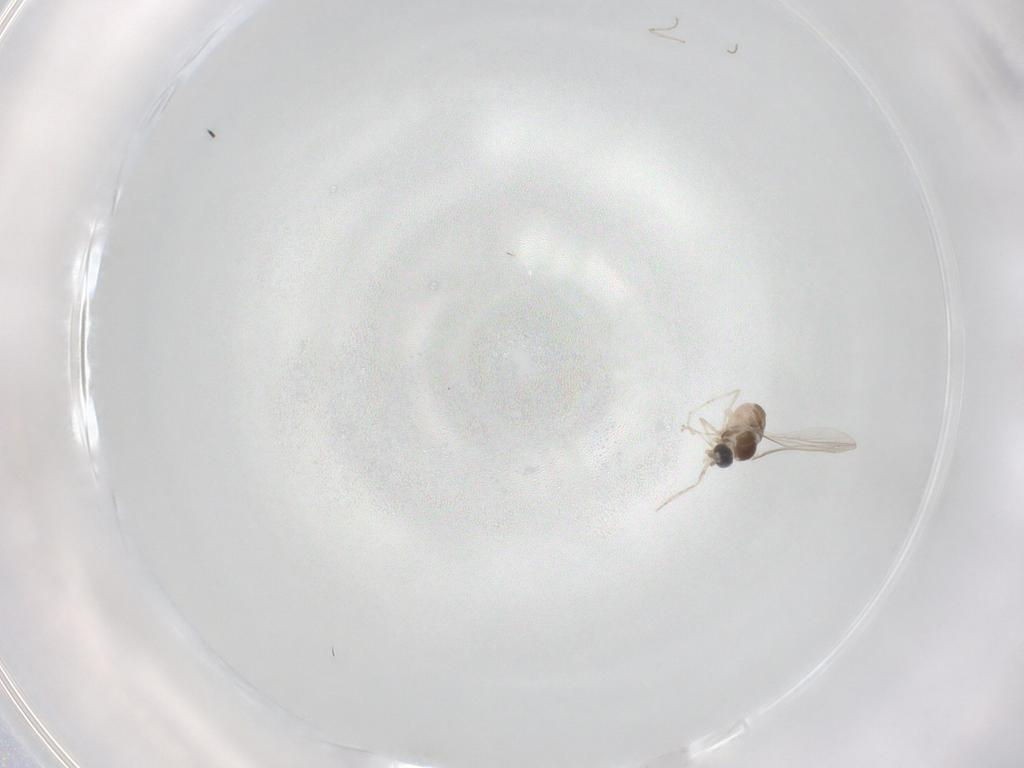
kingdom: Animalia
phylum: Arthropoda
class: Insecta
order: Diptera
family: Cecidomyiidae
